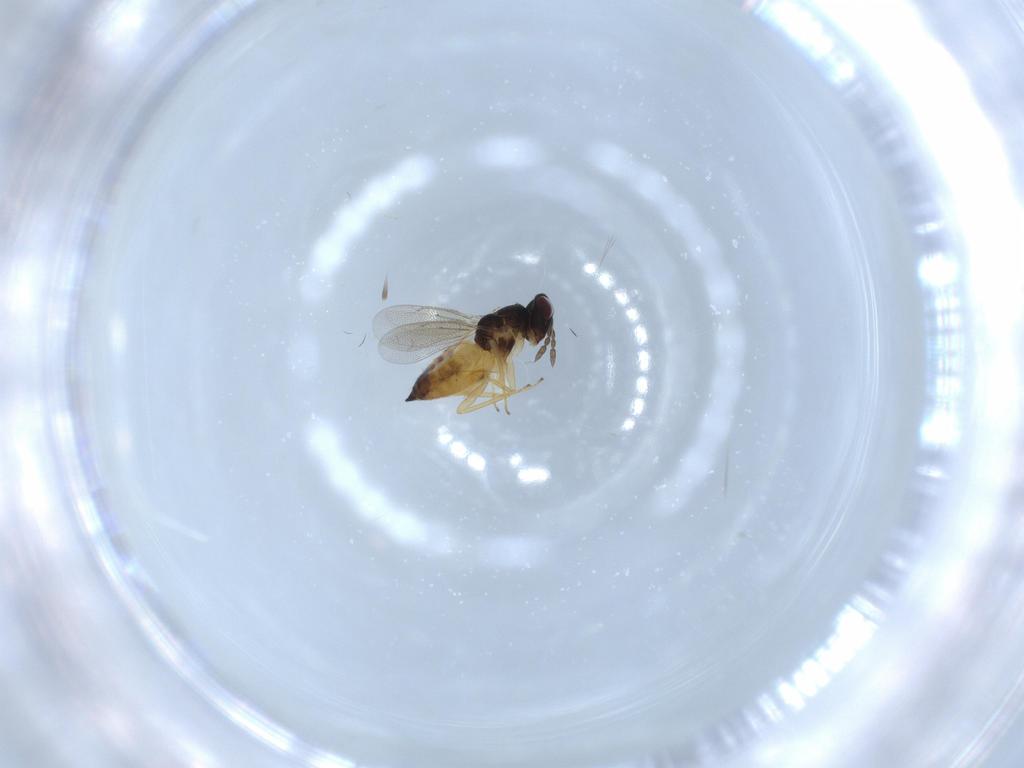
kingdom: Animalia
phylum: Arthropoda
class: Insecta
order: Hymenoptera
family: Eulophidae
